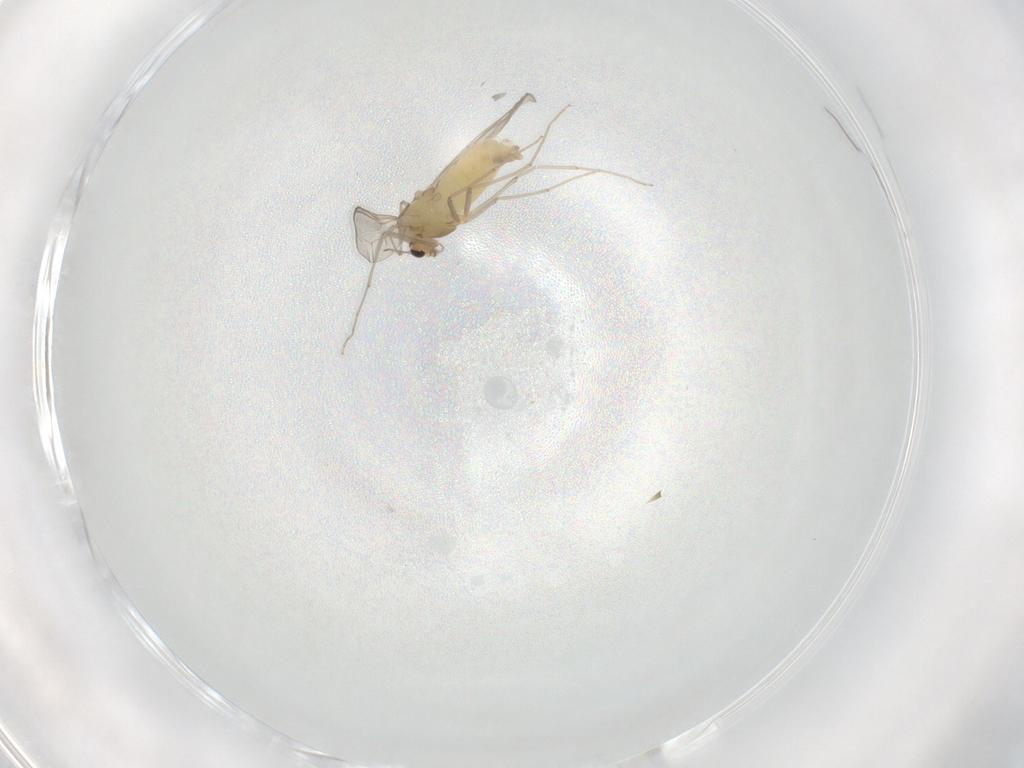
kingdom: Animalia
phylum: Arthropoda
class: Insecta
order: Diptera
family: Chironomidae
